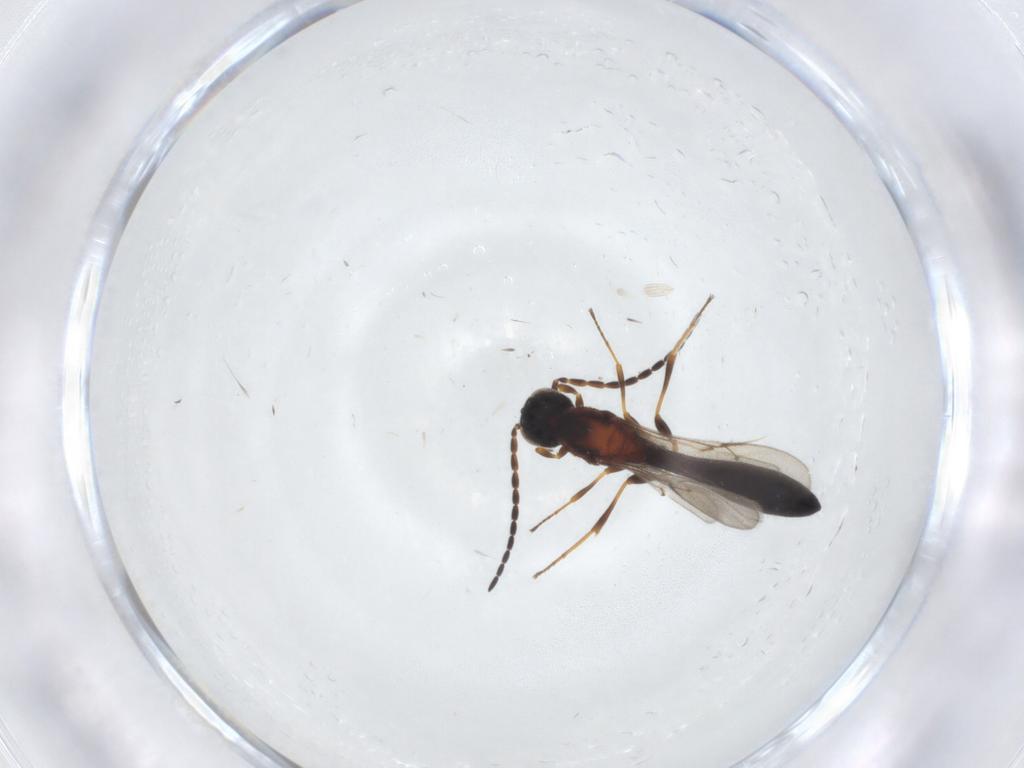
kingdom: Animalia
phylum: Arthropoda
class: Insecta
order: Hymenoptera
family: Scelionidae
